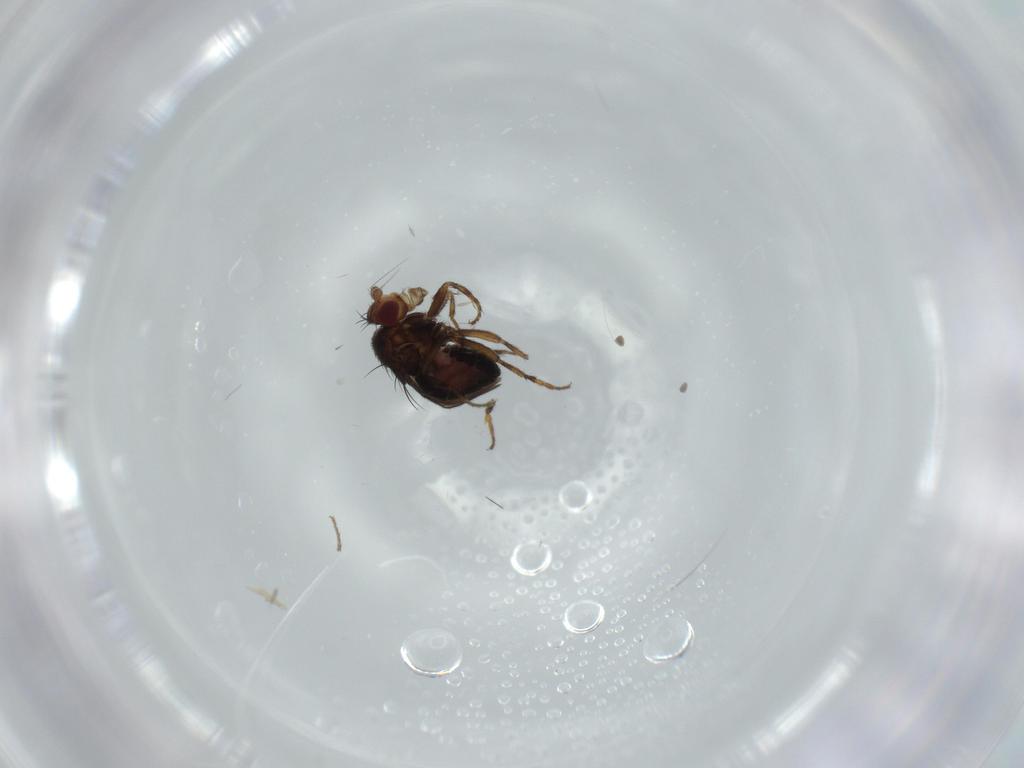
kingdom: Animalia
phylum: Arthropoda
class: Insecta
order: Diptera
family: Sphaeroceridae
